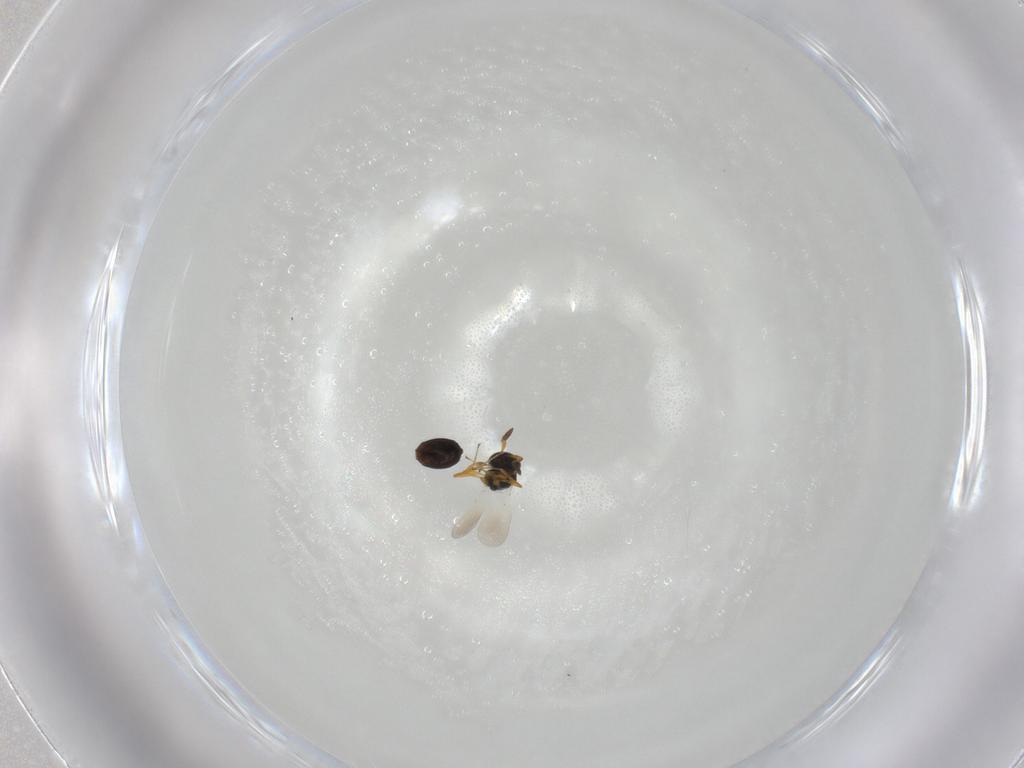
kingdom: Animalia
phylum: Arthropoda
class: Insecta
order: Hymenoptera
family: Platygastridae
